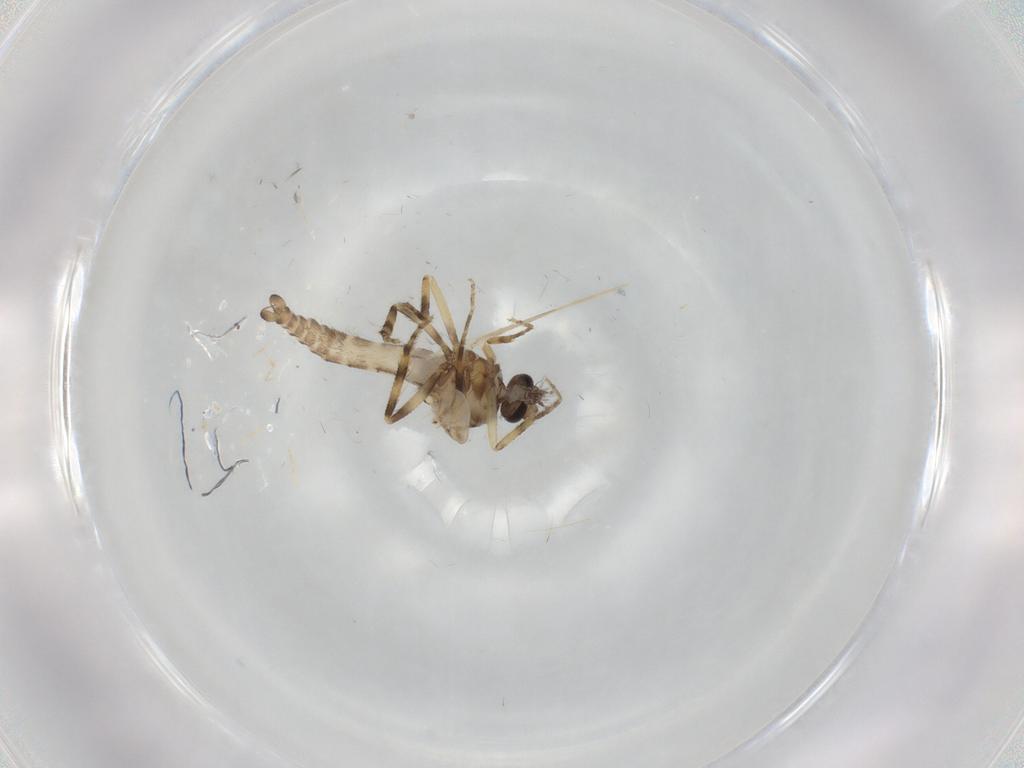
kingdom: Animalia
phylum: Arthropoda
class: Insecta
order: Diptera
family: Ceratopogonidae
